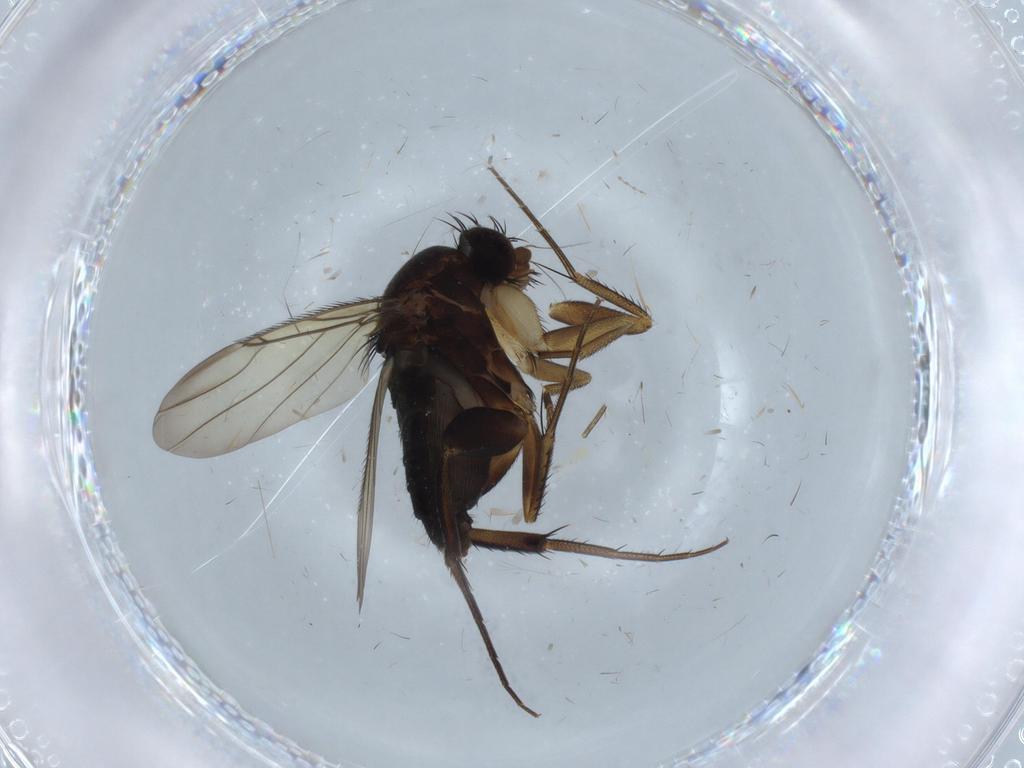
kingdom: Animalia
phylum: Arthropoda
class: Insecta
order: Diptera
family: Phoridae
